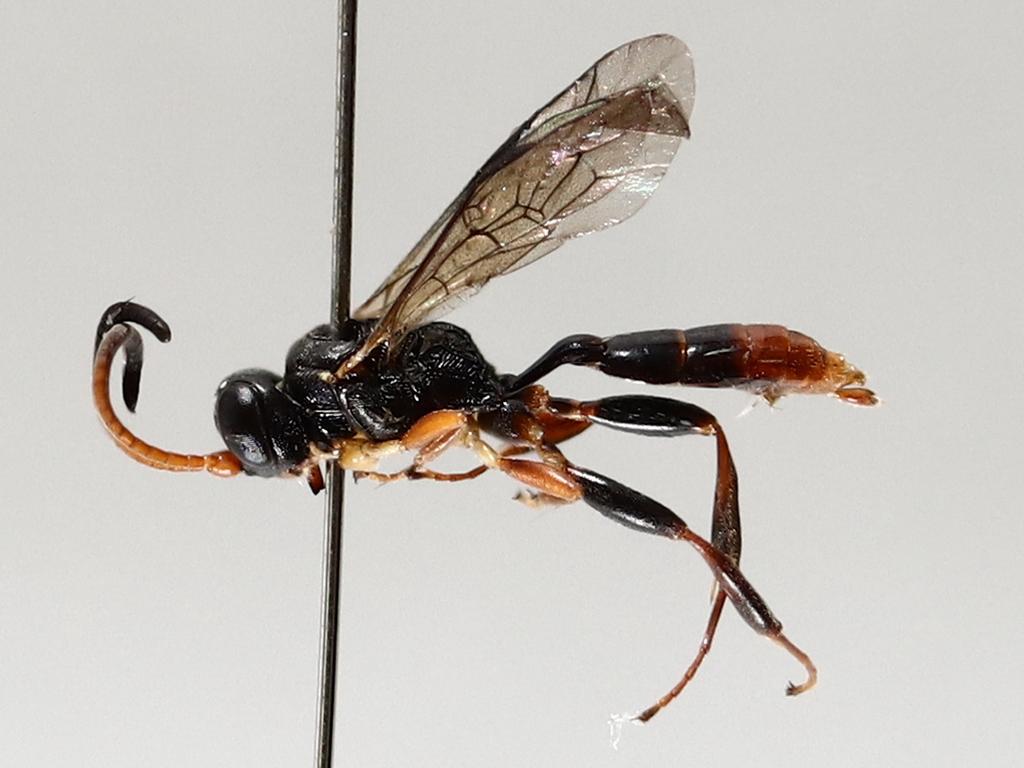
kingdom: Animalia
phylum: Arthropoda
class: Insecta
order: Diptera
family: Psychodidae
